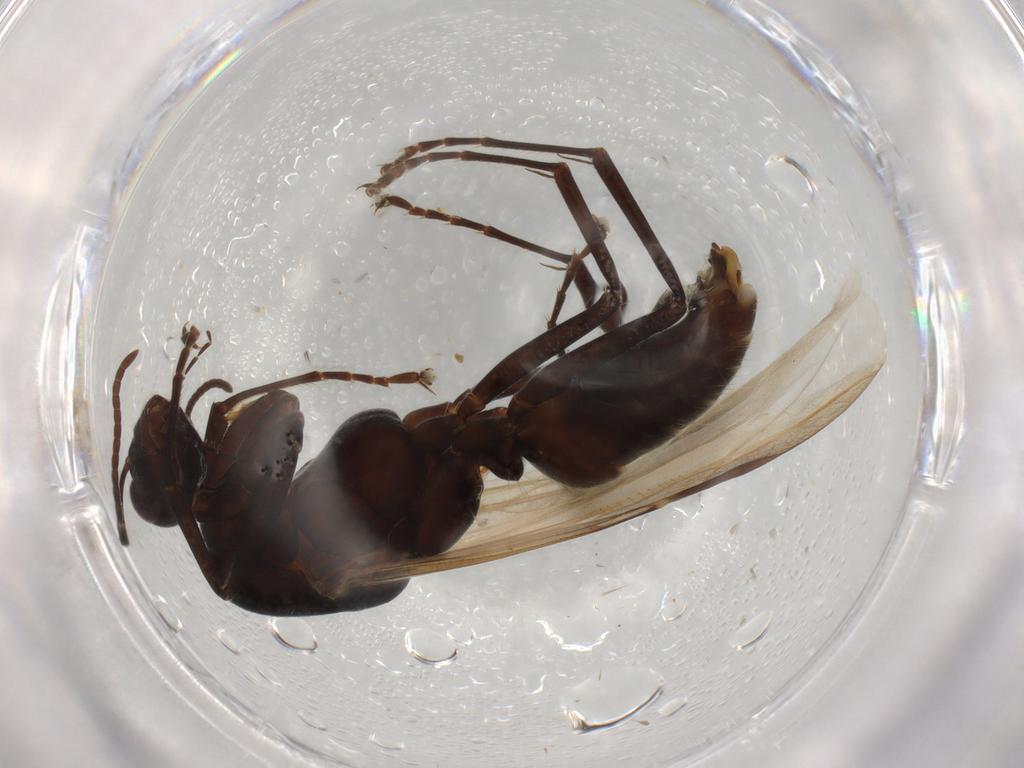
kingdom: Animalia
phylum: Arthropoda
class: Insecta
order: Hymenoptera
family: Formicidae
